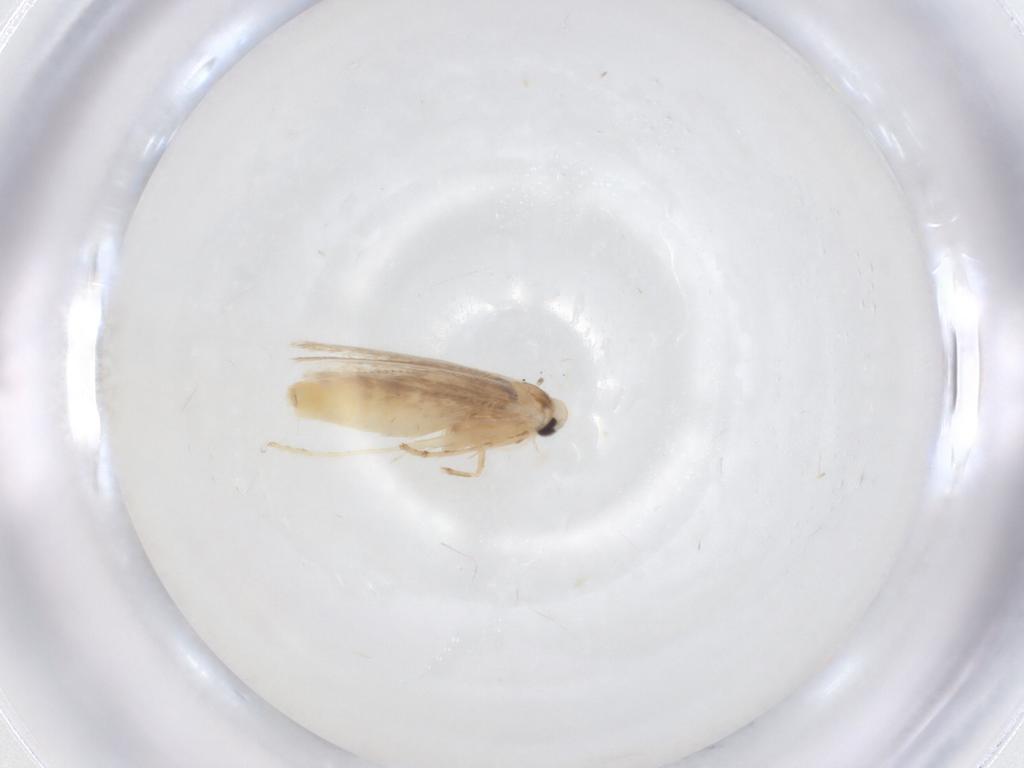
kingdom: Animalia
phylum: Arthropoda
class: Insecta
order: Lepidoptera
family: Gracillariidae
